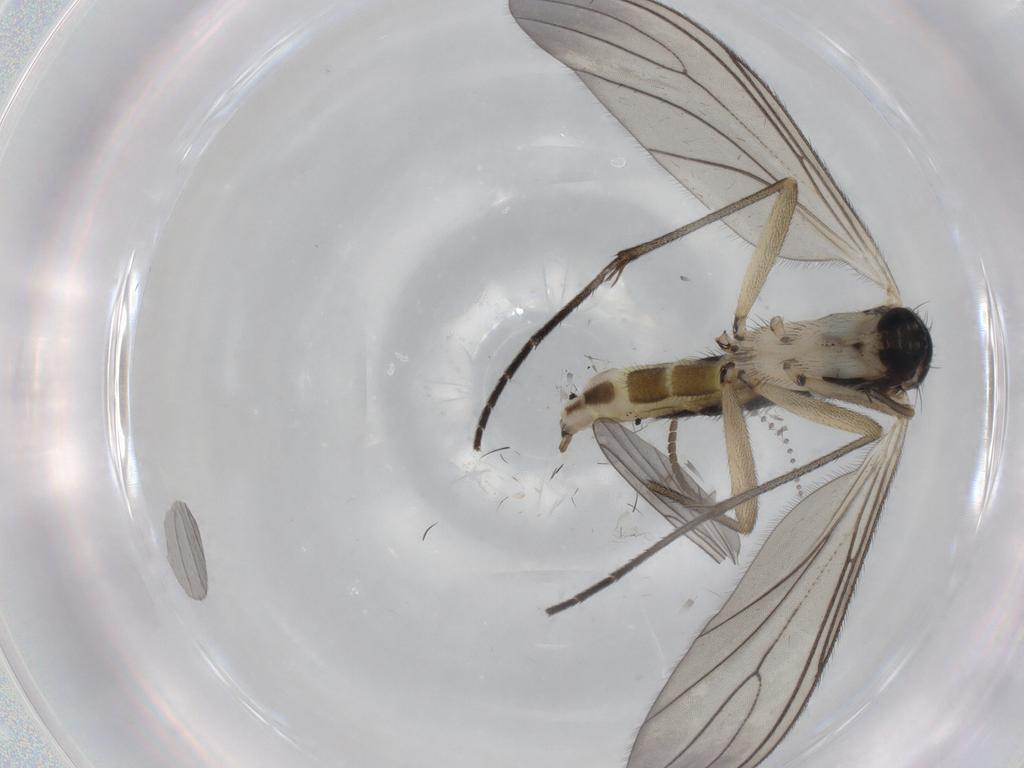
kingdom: Animalia
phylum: Arthropoda
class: Insecta
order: Diptera
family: Sciaridae
